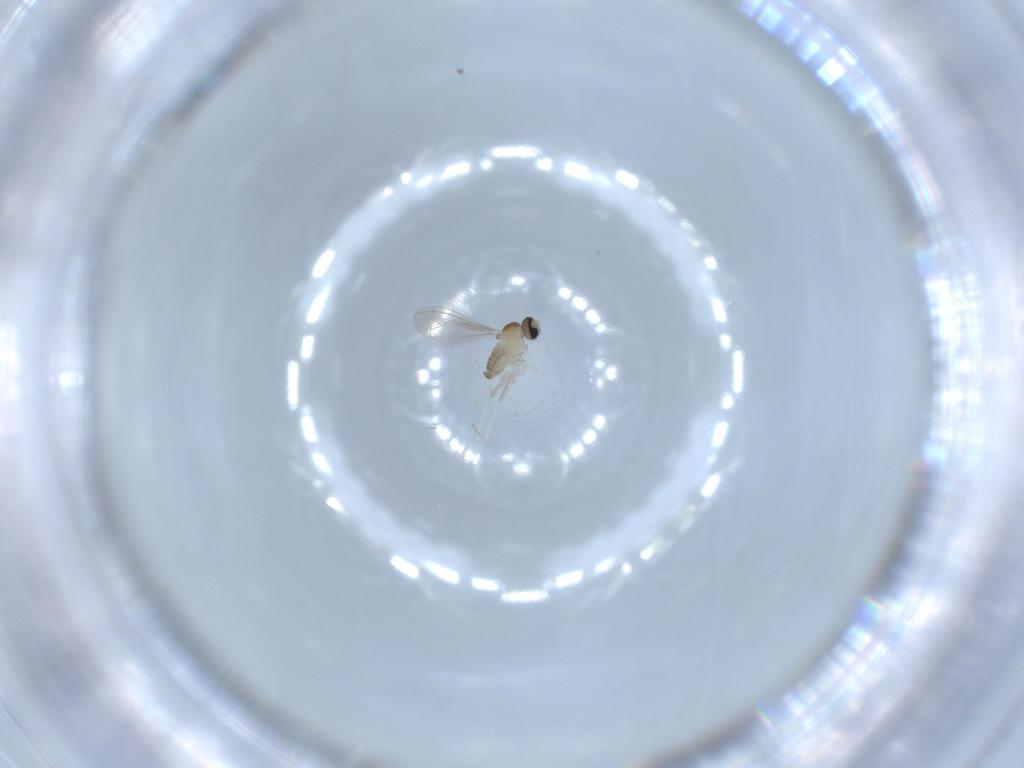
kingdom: Animalia
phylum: Arthropoda
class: Insecta
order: Diptera
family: Cecidomyiidae
